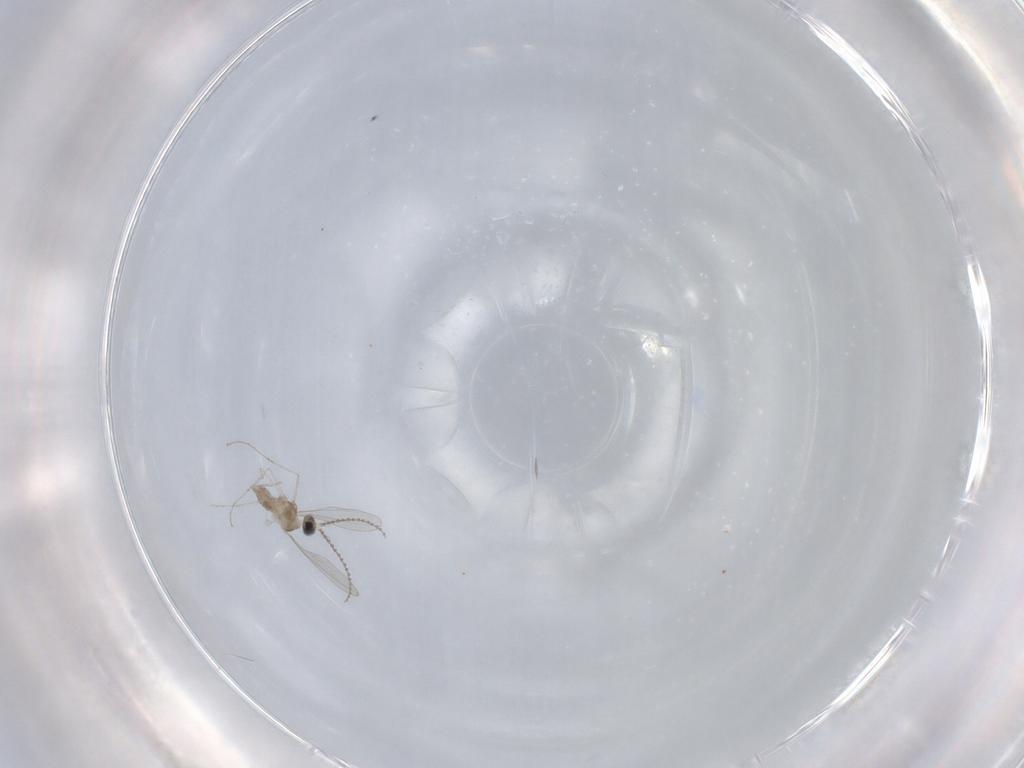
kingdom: Animalia
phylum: Arthropoda
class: Insecta
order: Diptera
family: Cecidomyiidae
